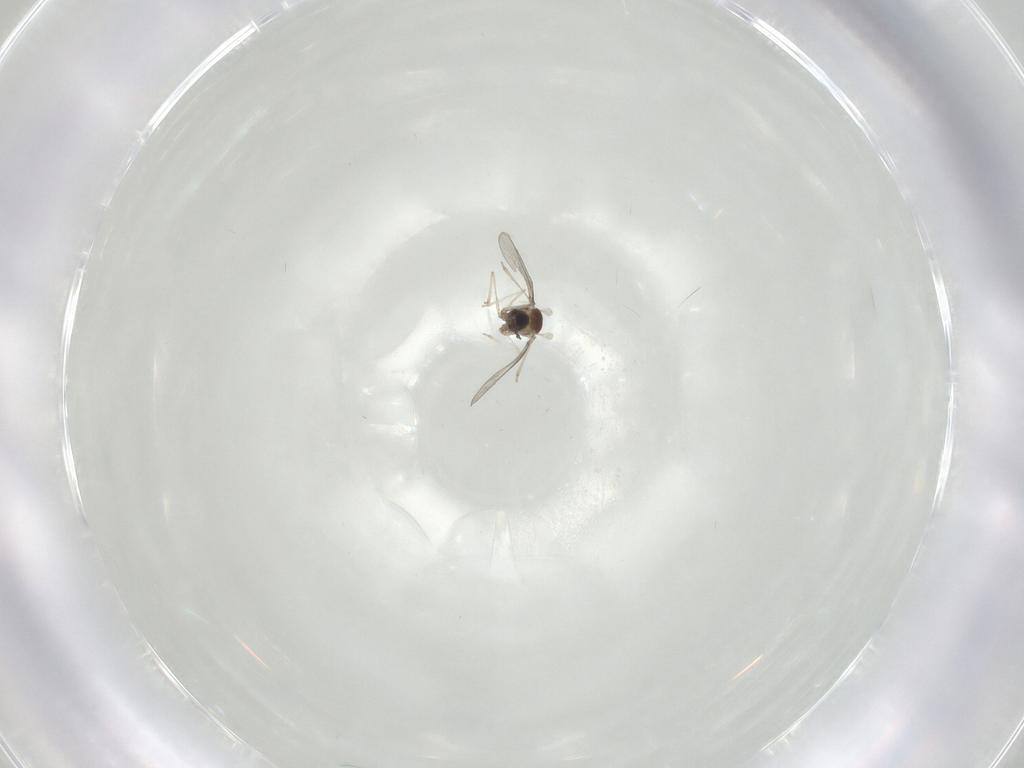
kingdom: Animalia
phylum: Arthropoda
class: Insecta
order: Diptera
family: Cecidomyiidae
